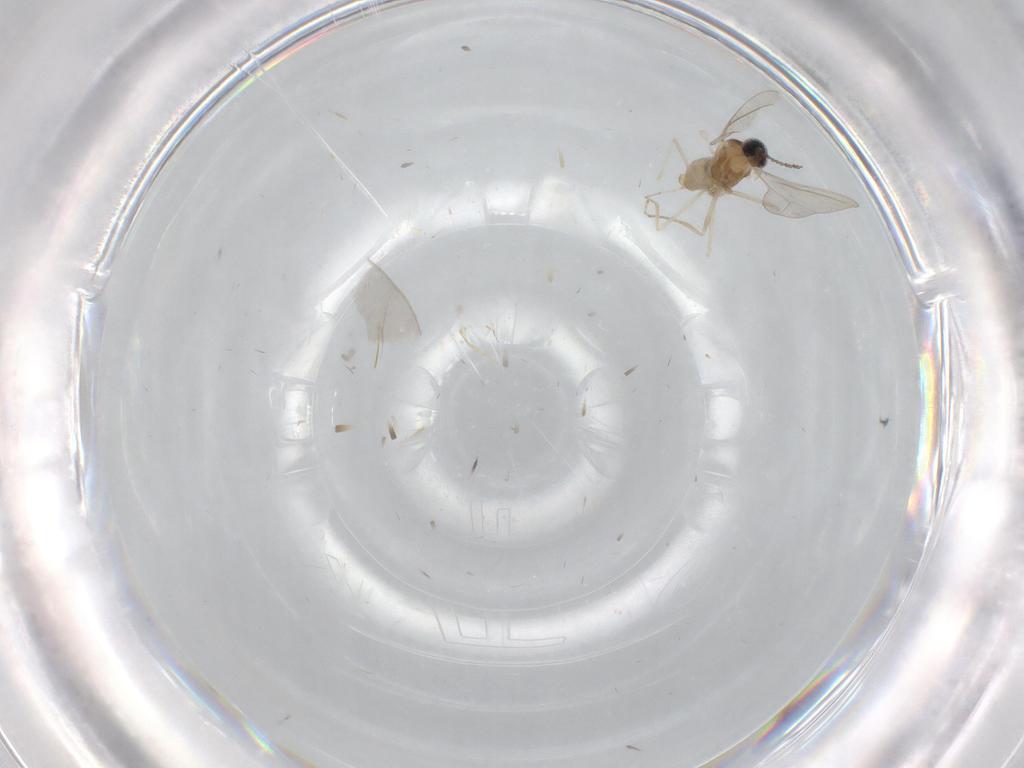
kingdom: Animalia
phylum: Arthropoda
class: Insecta
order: Diptera
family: Cecidomyiidae
